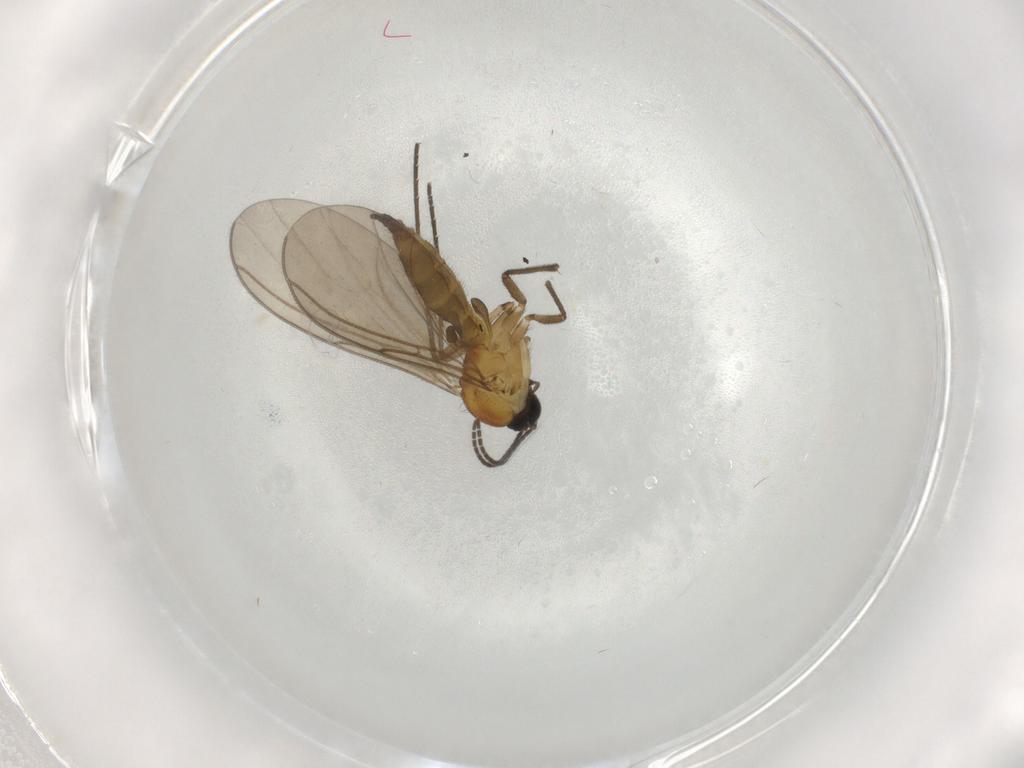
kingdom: Animalia
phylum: Arthropoda
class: Insecta
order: Diptera
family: Sciaridae
